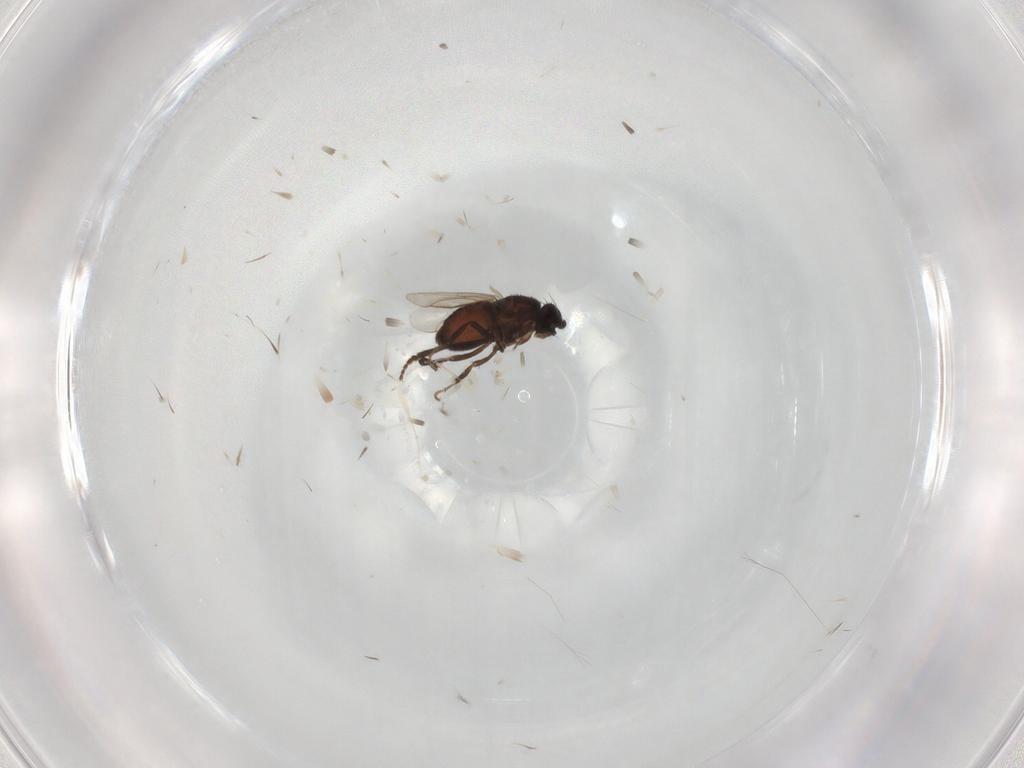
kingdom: Animalia
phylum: Arthropoda
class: Insecta
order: Diptera
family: Sphaeroceridae
